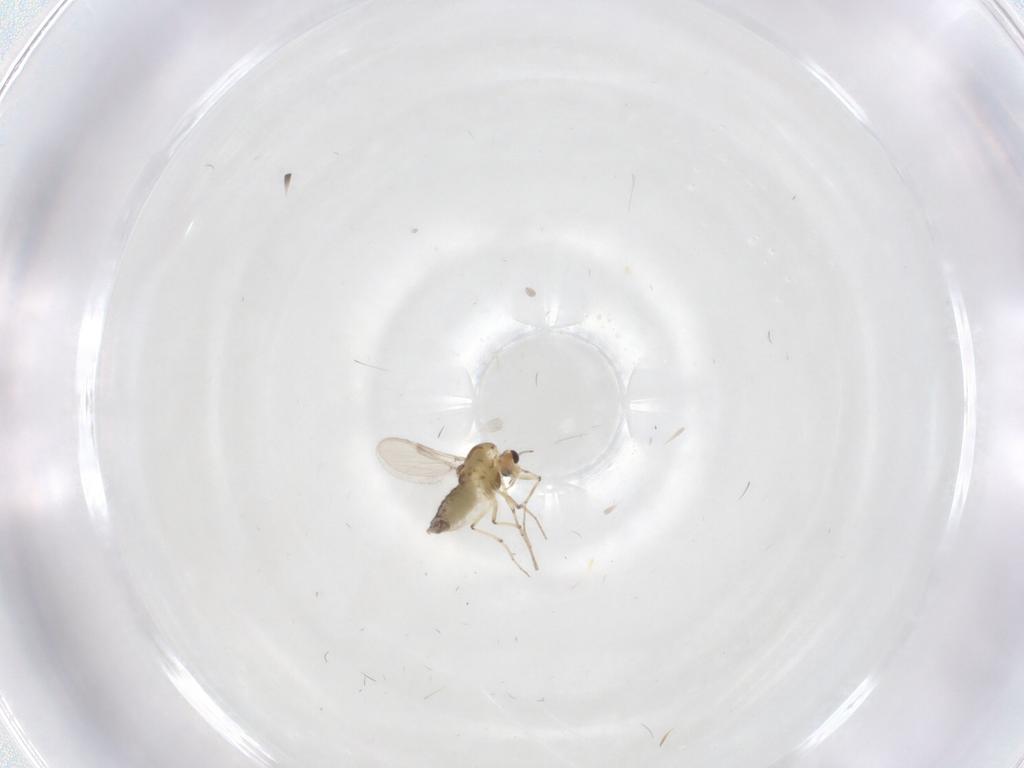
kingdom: Animalia
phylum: Arthropoda
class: Insecta
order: Diptera
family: Chironomidae
